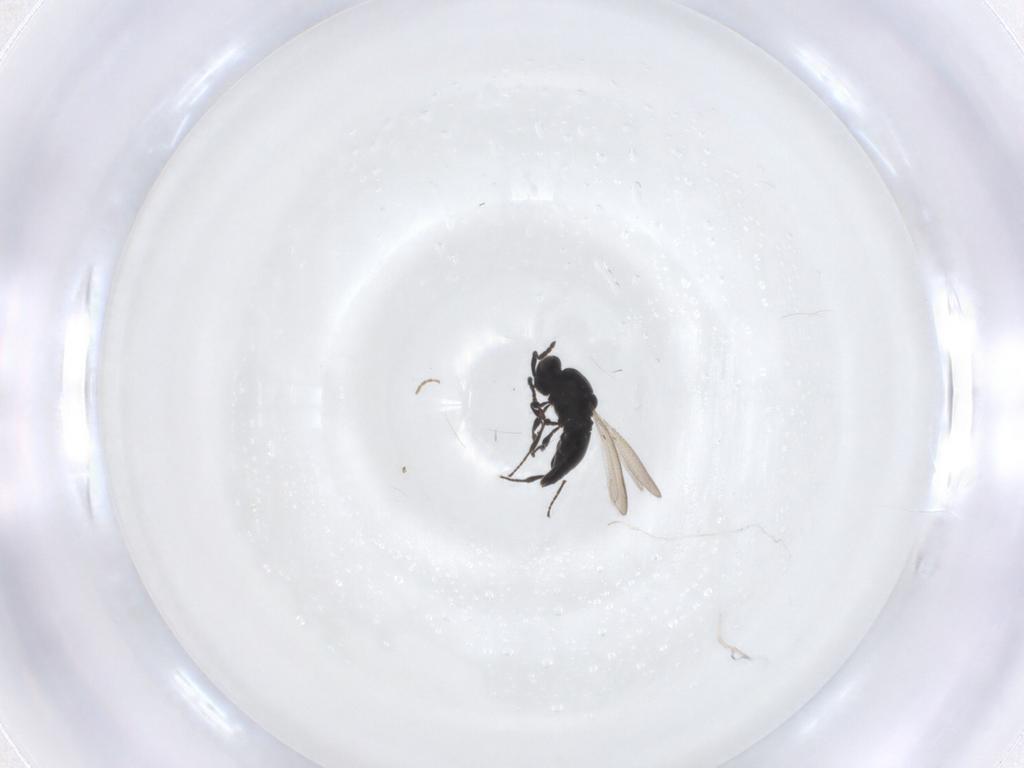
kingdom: Animalia
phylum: Arthropoda
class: Insecta
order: Hymenoptera
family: Platygastridae
